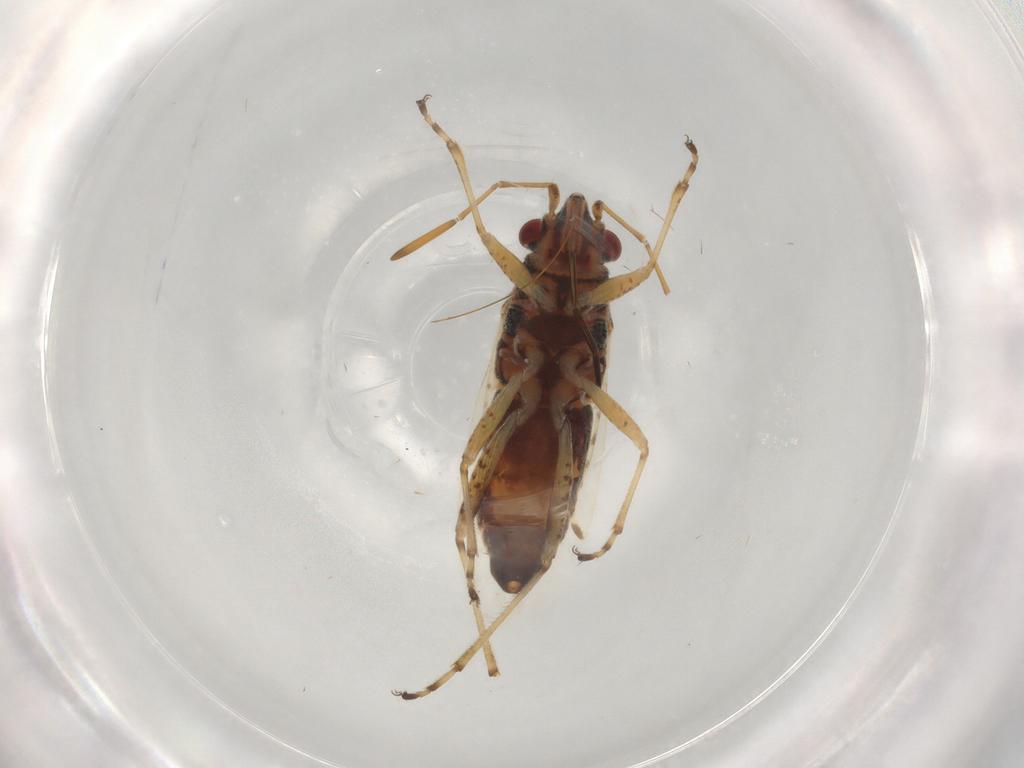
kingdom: Animalia
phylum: Arthropoda
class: Insecta
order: Hemiptera
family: Lygaeidae
